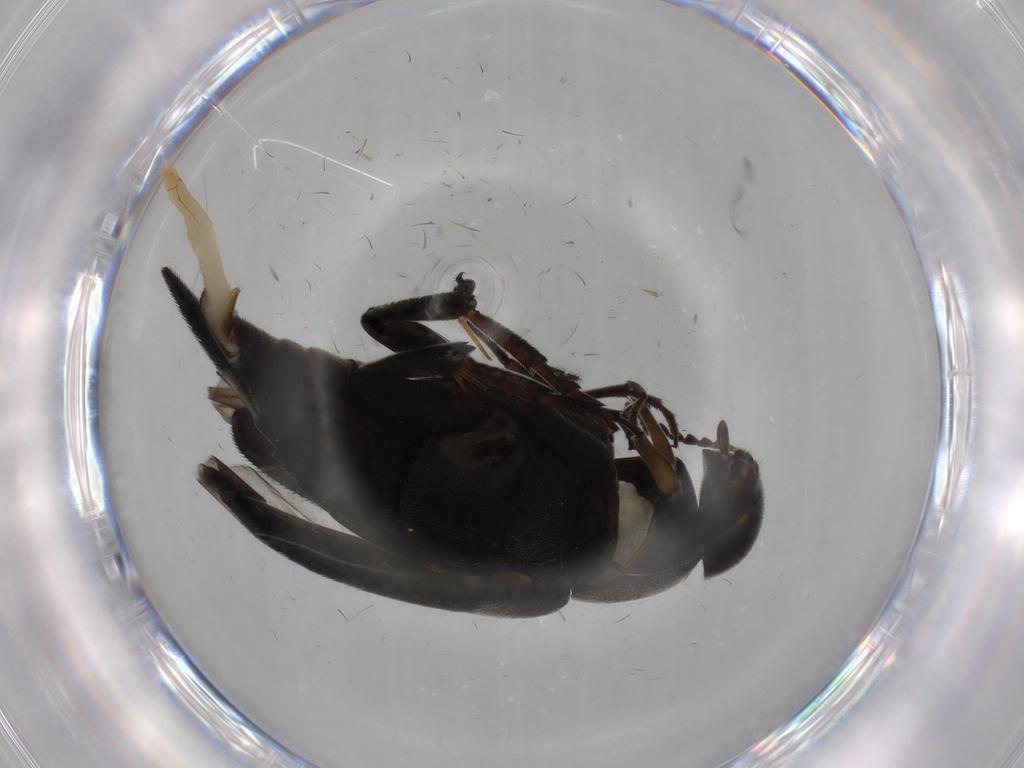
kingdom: Animalia
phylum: Arthropoda
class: Insecta
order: Coleoptera
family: Mordellidae
